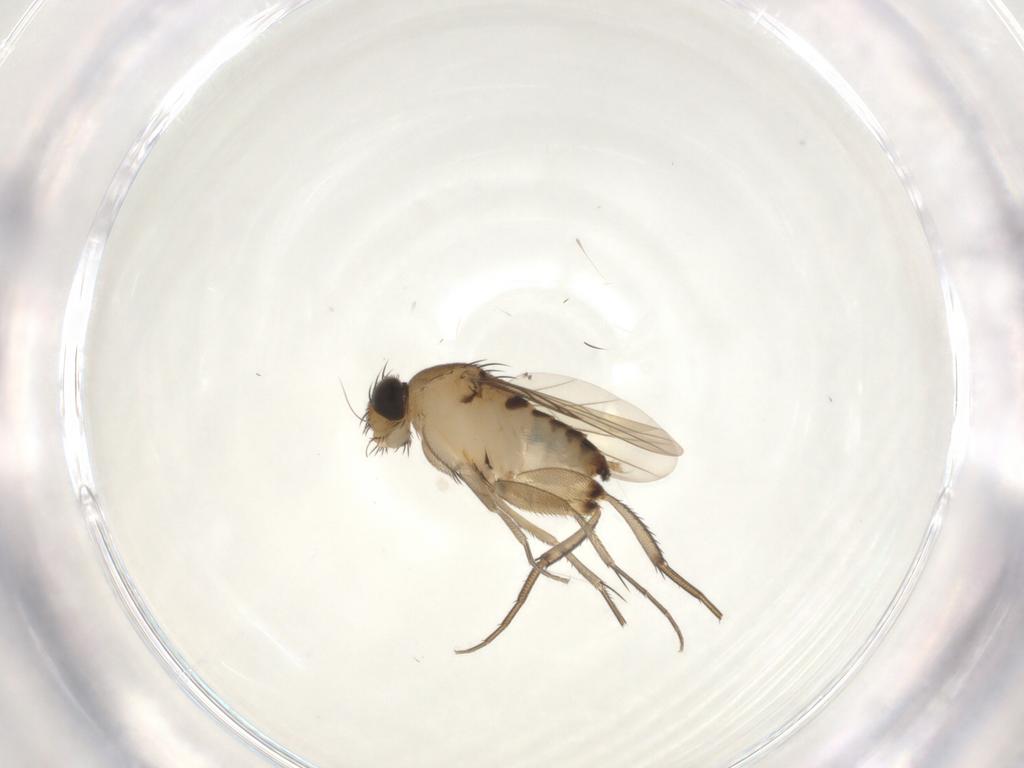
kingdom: Animalia
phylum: Arthropoda
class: Insecta
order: Diptera
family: Phoridae
